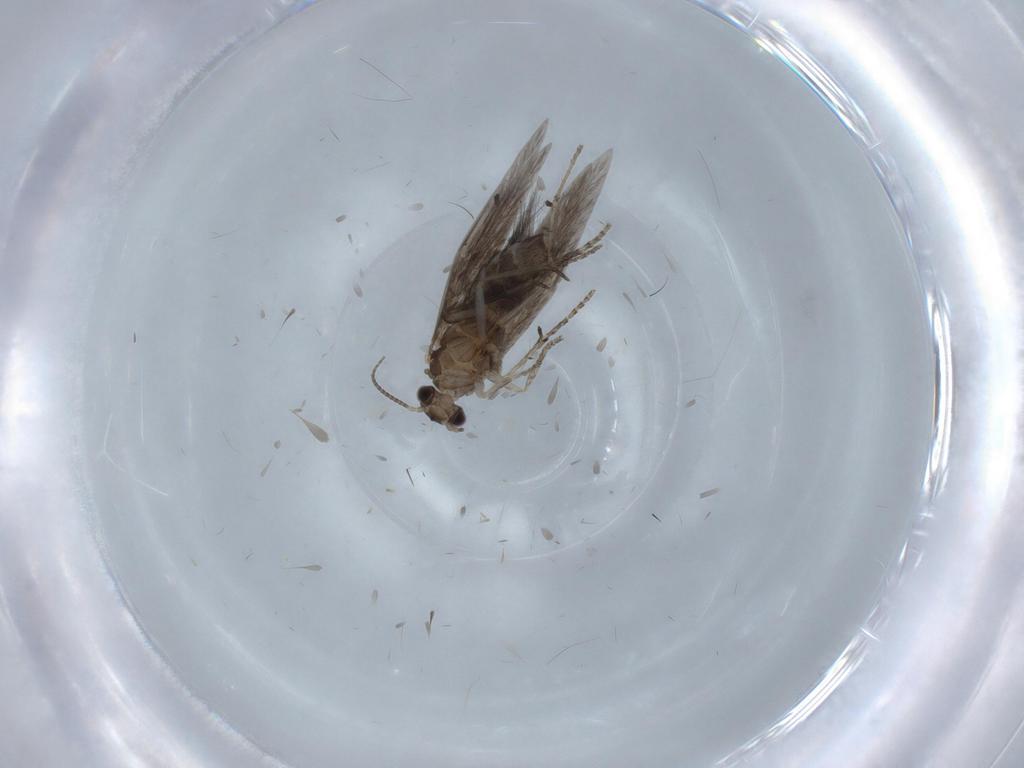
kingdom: Animalia
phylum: Arthropoda
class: Insecta
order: Trichoptera
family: Hydroptilidae
